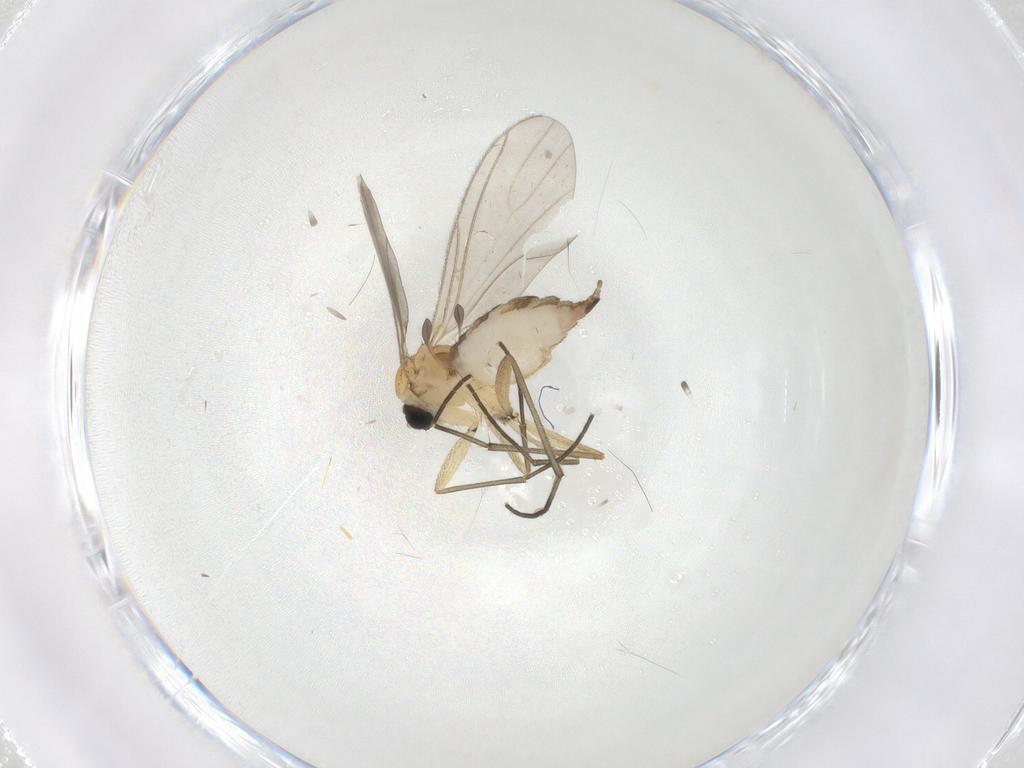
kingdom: Animalia
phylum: Arthropoda
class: Insecta
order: Diptera
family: Sciaridae
